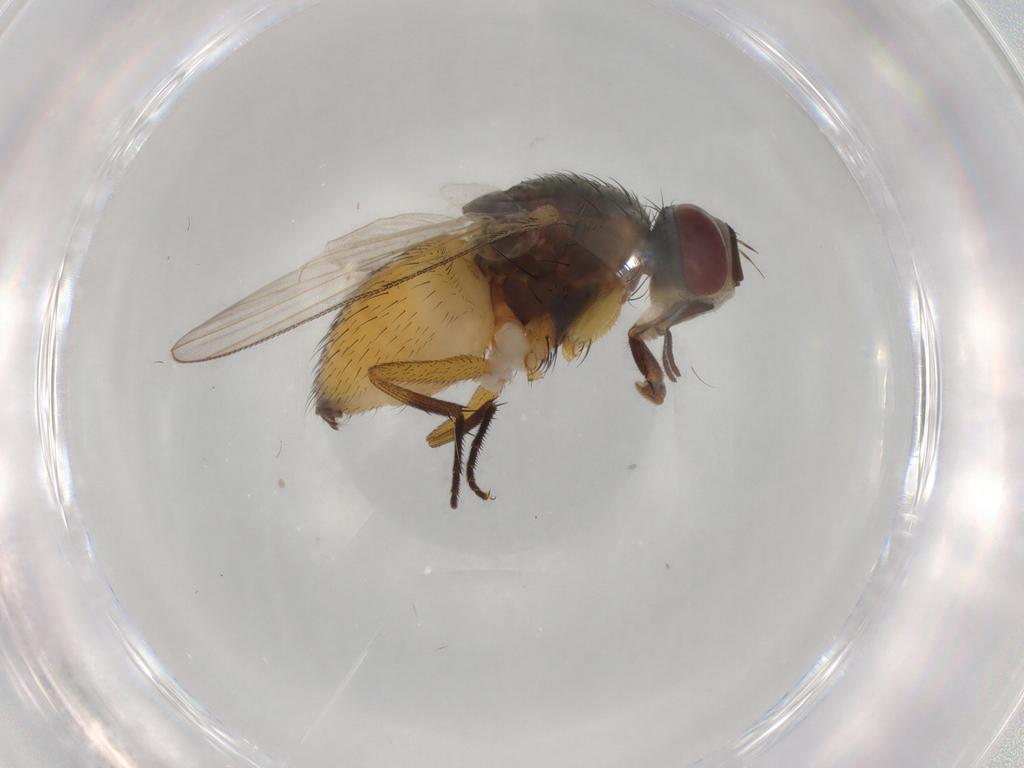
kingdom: Animalia
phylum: Arthropoda
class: Insecta
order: Diptera
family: Muscidae
